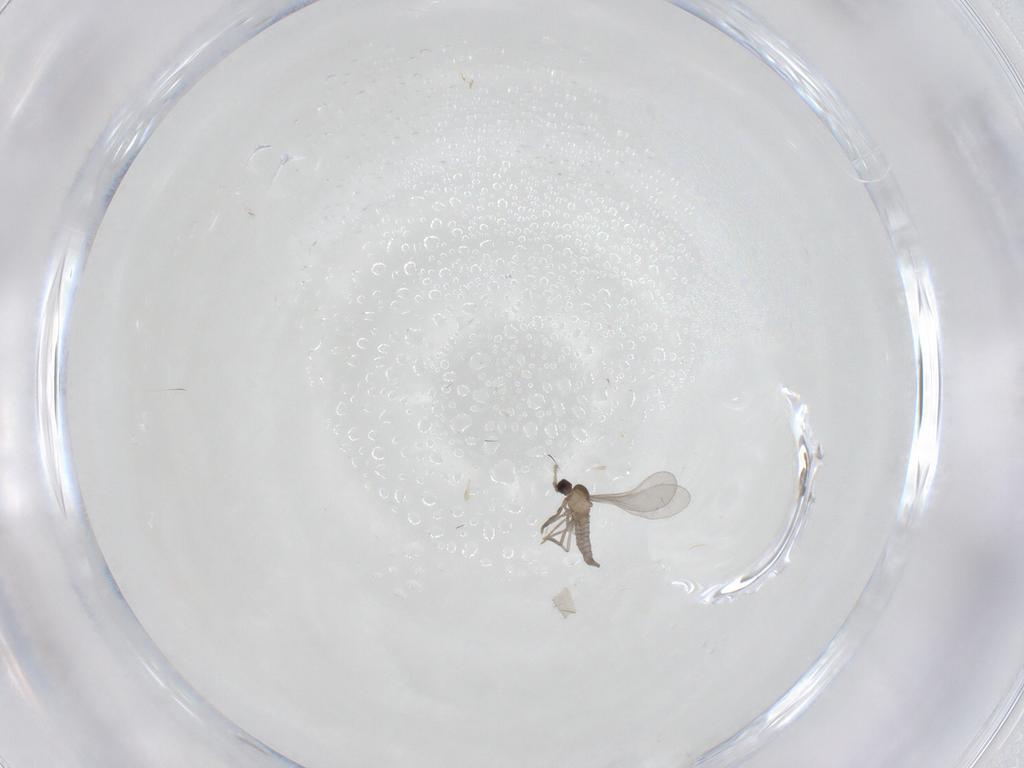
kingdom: Animalia
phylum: Arthropoda
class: Insecta
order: Diptera
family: Cecidomyiidae
